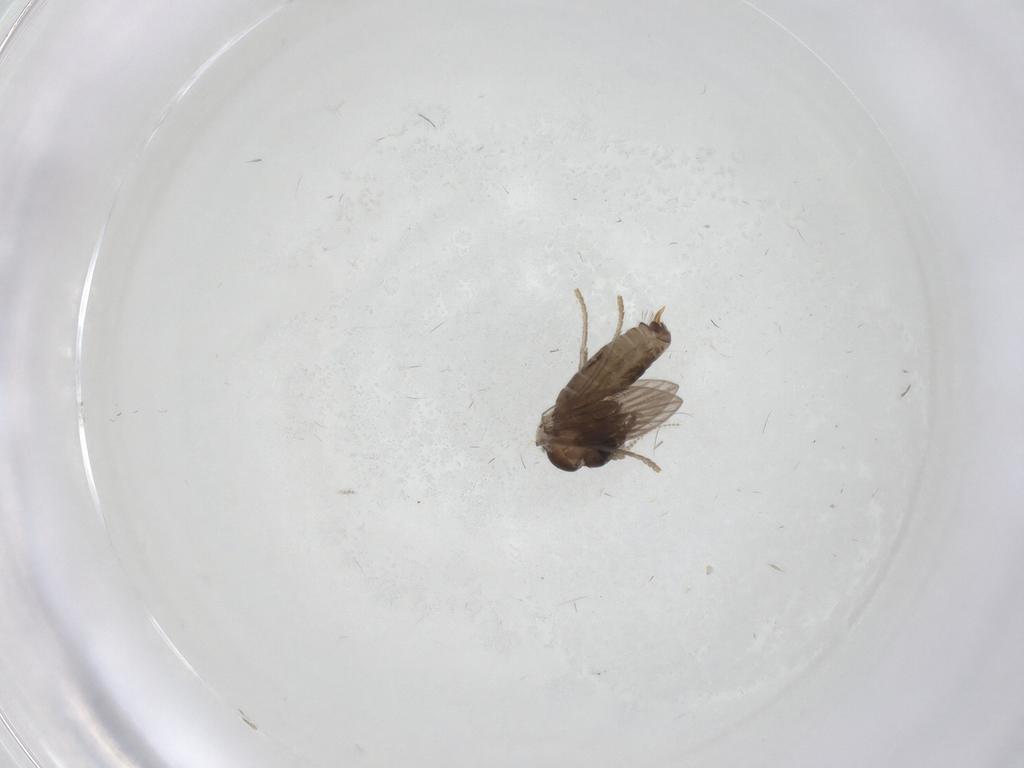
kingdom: Animalia
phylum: Arthropoda
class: Insecta
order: Diptera
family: Psychodidae
